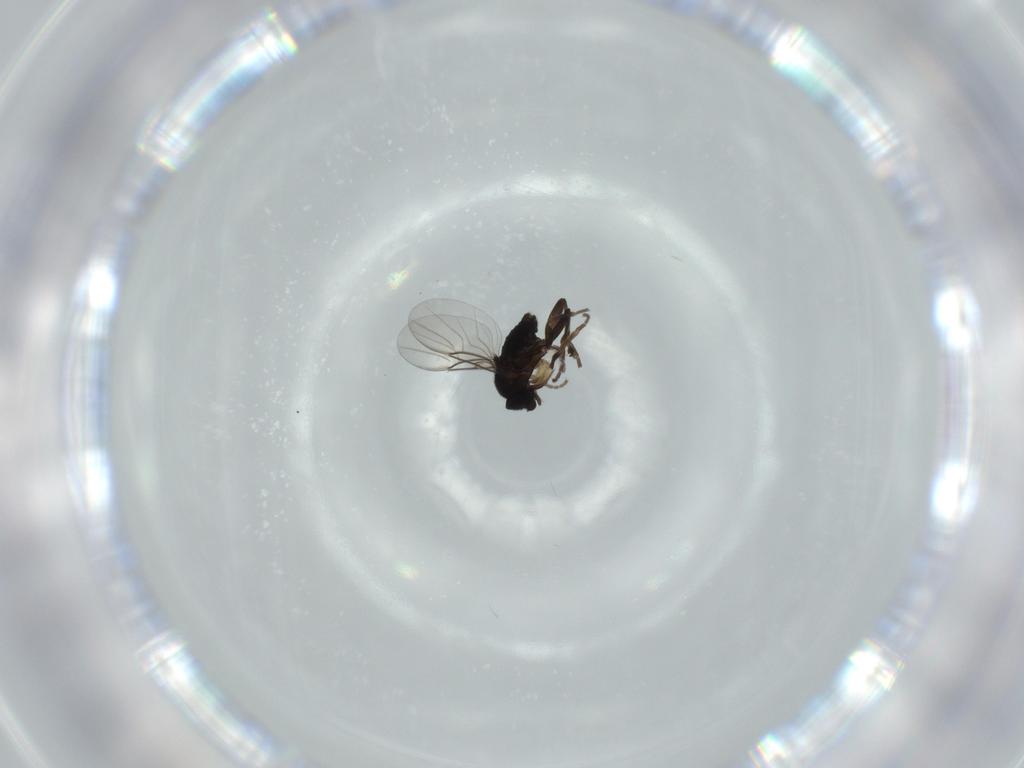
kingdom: Animalia
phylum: Arthropoda
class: Insecta
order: Diptera
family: Phoridae
